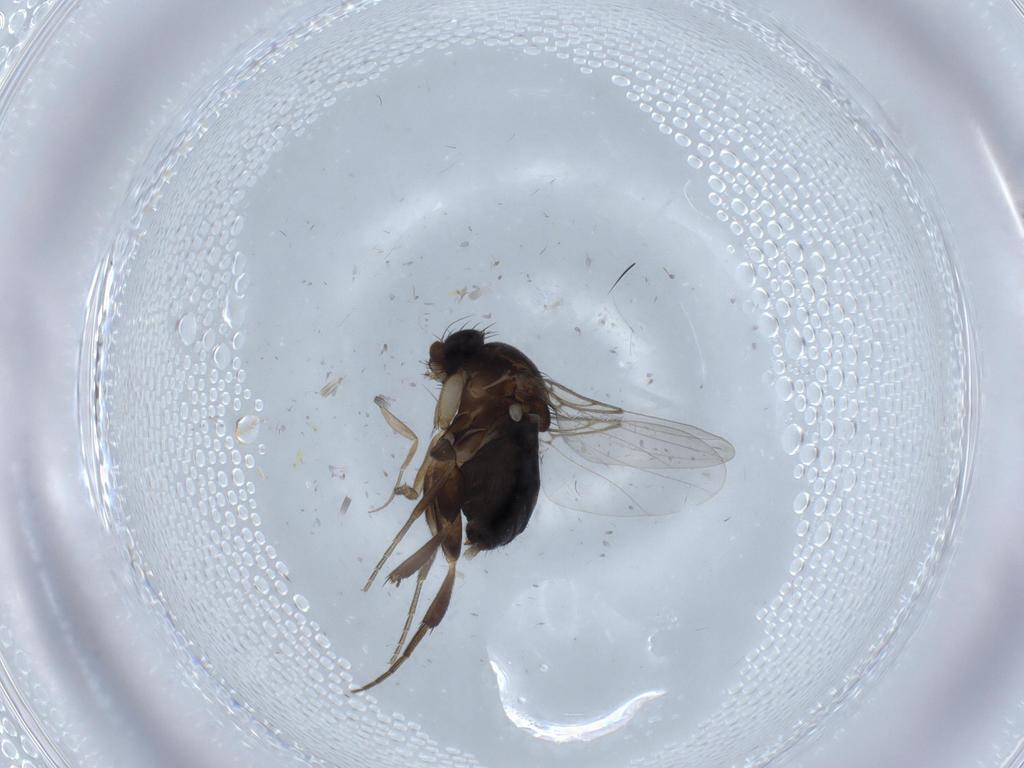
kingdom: Animalia
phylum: Arthropoda
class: Insecta
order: Diptera
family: Phoridae
